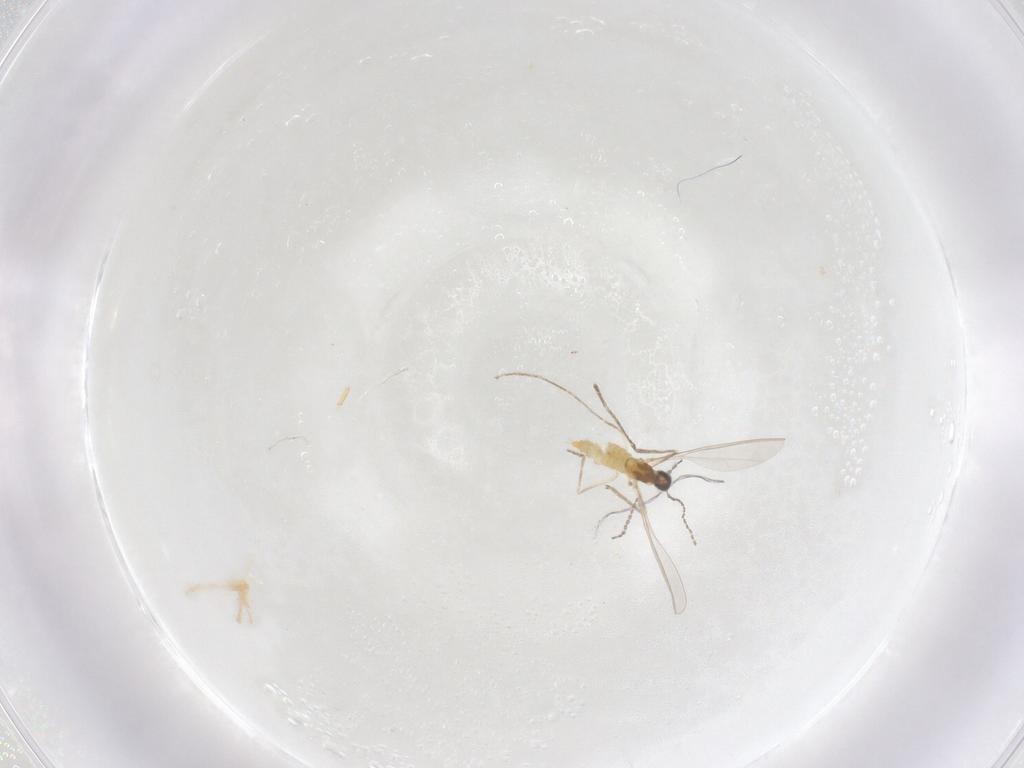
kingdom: Animalia
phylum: Arthropoda
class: Insecta
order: Diptera
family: Cecidomyiidae
